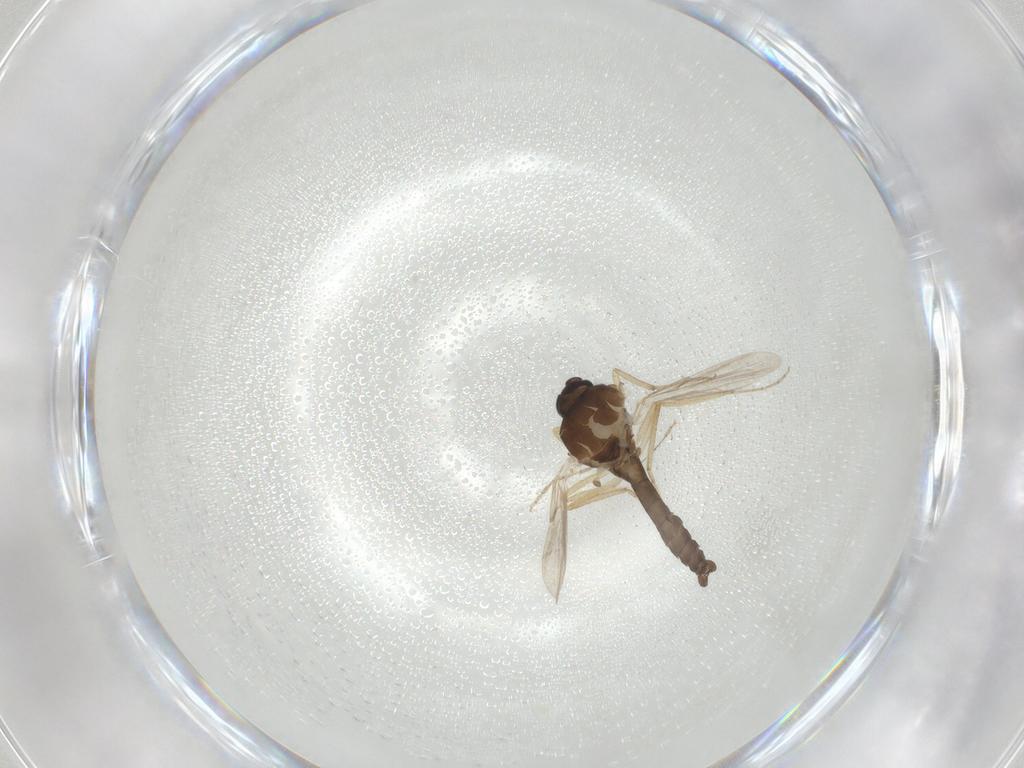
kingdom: Animalia
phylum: Arthropoda
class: Insecta
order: Diptera
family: Ceratopogonidae
